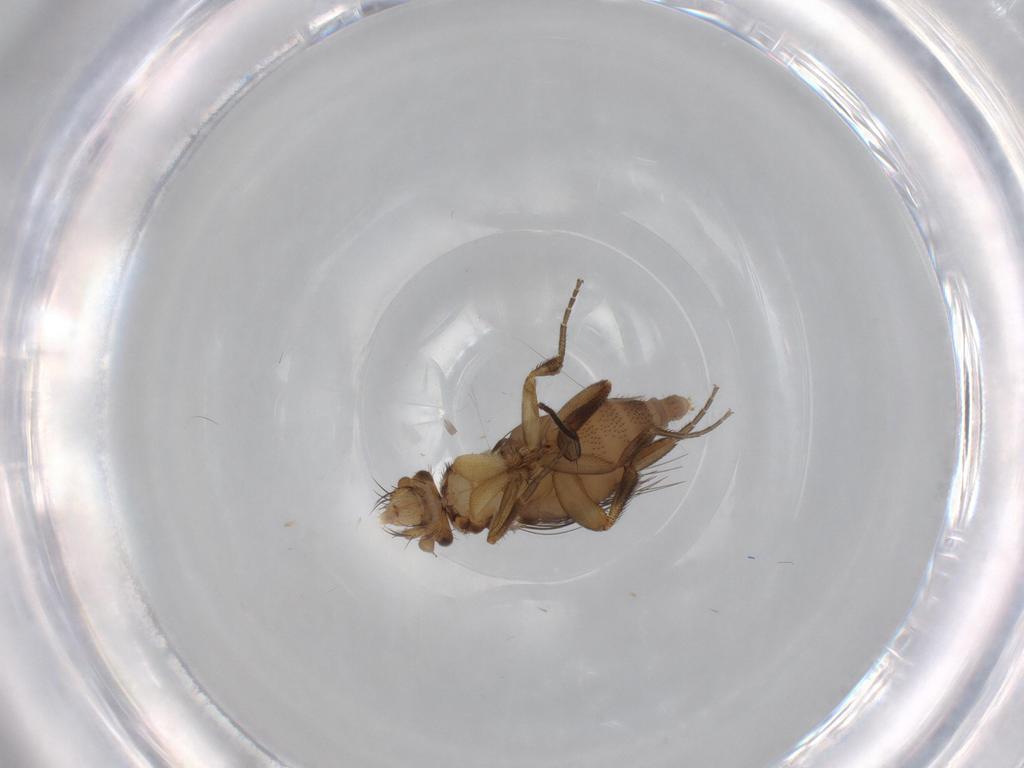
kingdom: Animalia
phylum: Arthropoda
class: Insecta
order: Diptera
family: Phoridae
